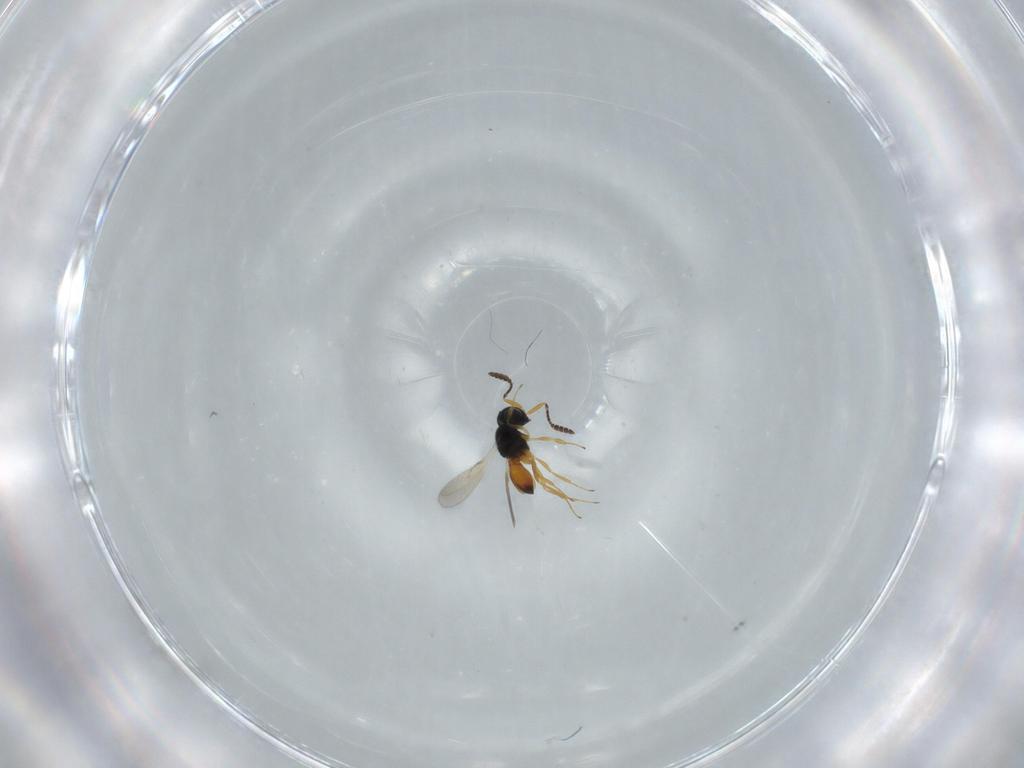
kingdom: Animalia
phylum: Arthropoda
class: Insecta
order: Hymenoptera
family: Scelionidae
